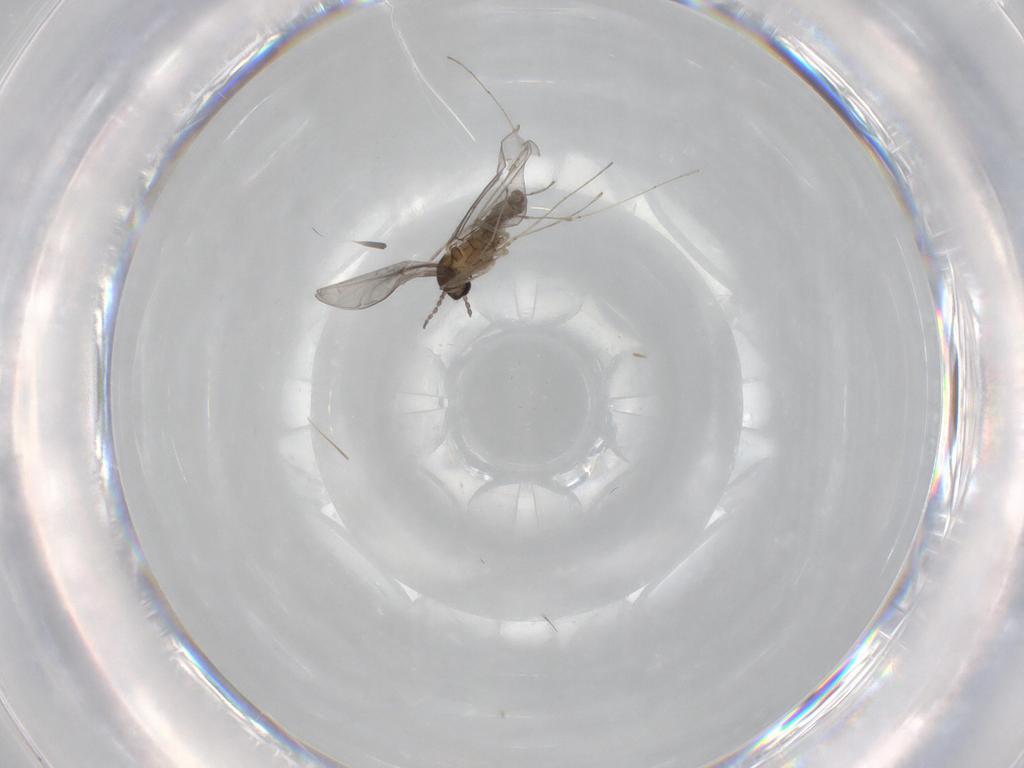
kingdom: Animalia
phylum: Arthropoda
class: Insecta
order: Diptera
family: Cecidomyiidae
